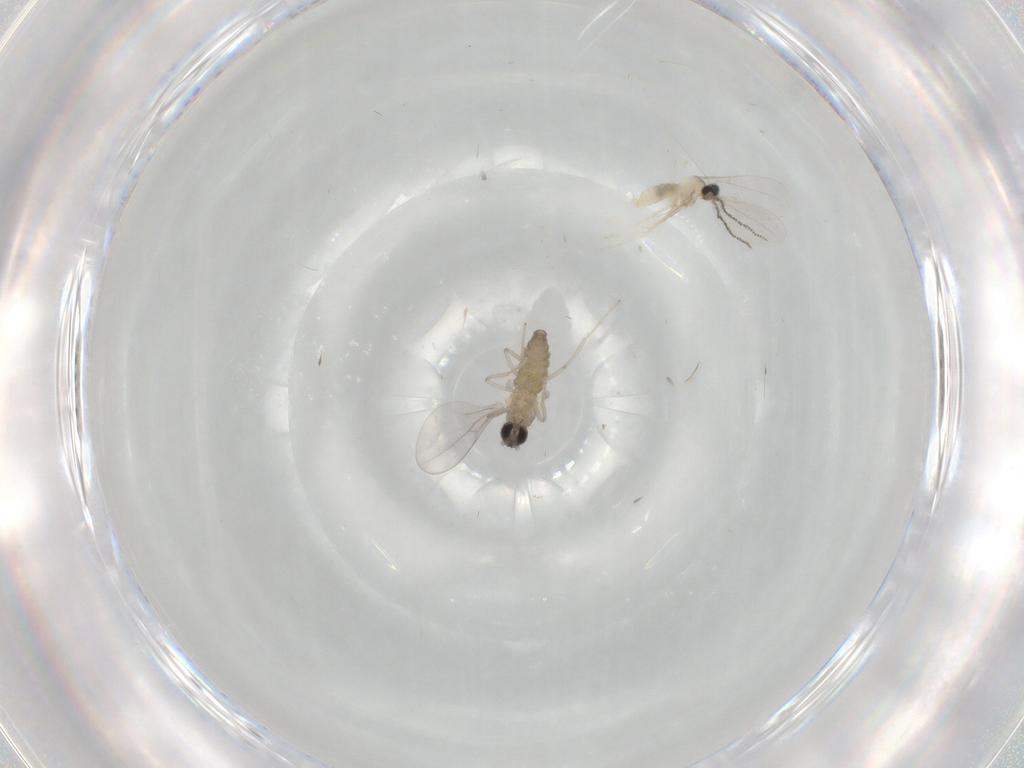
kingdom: Animalia
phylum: Arthropoda
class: Insecta
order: Diptera
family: Cecidomyiidae
